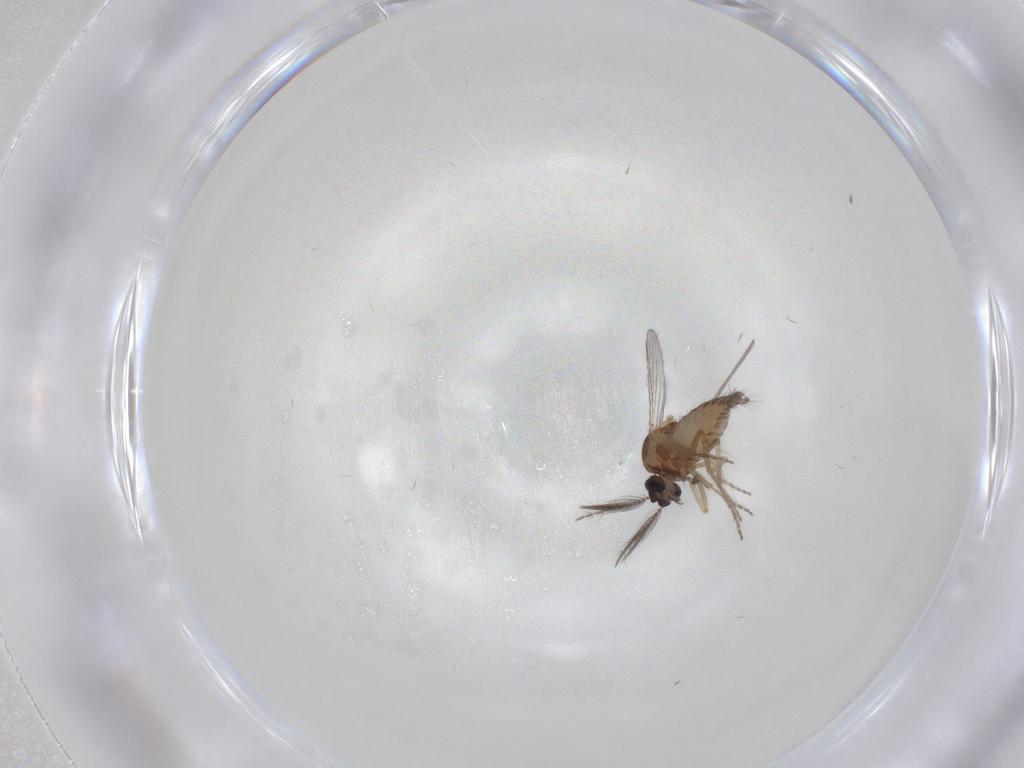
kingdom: Animalia
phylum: Arthropoda
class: Insecta
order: Diptera
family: Ceratopogonidae
